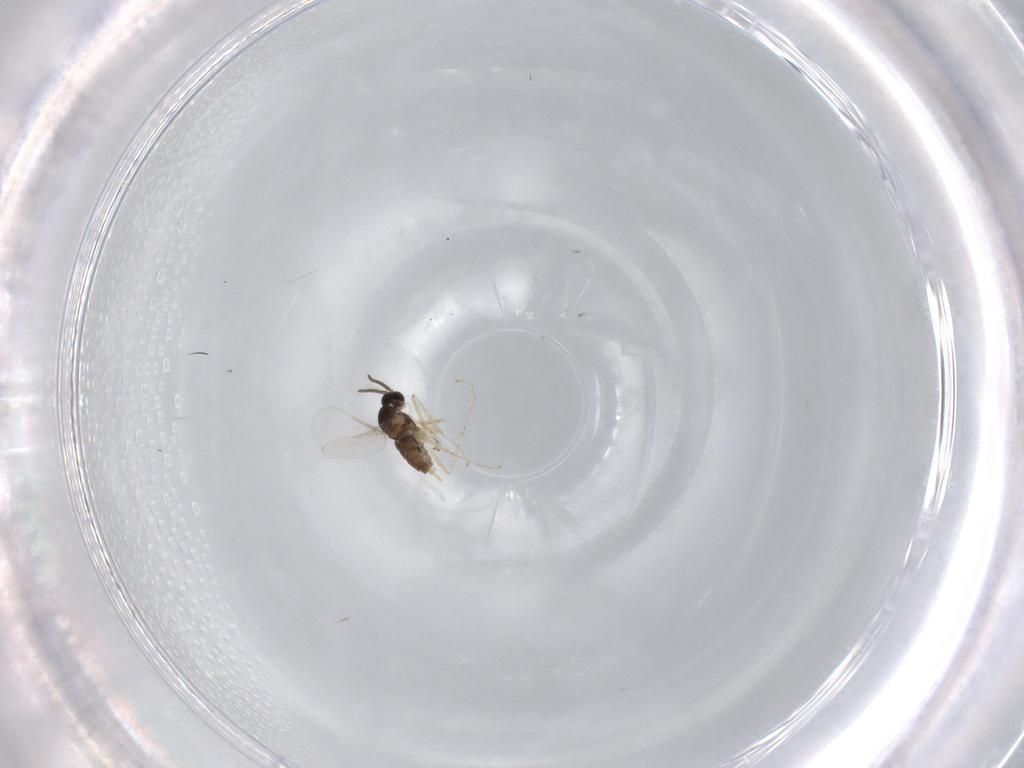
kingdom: Animalia
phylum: Arthropoda
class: Insecta
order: Diptera
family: Cecidomyiidae
